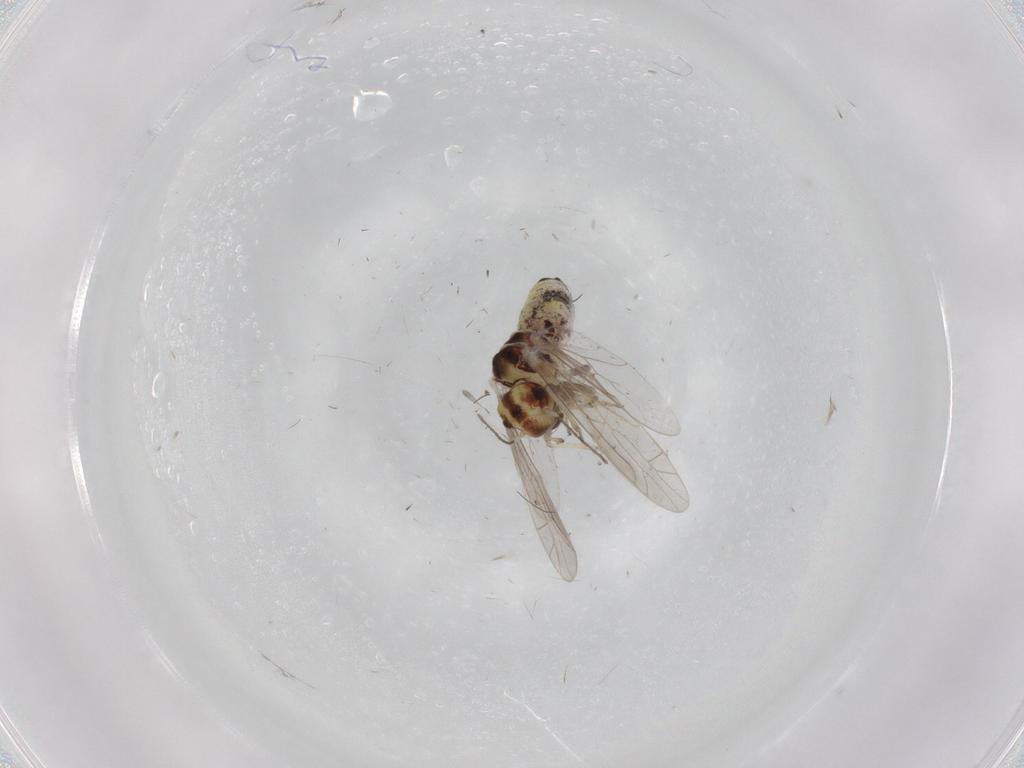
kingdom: Animalia
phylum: Arthropoda
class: Insecta
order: Psocodea
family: Ectopsocidae
